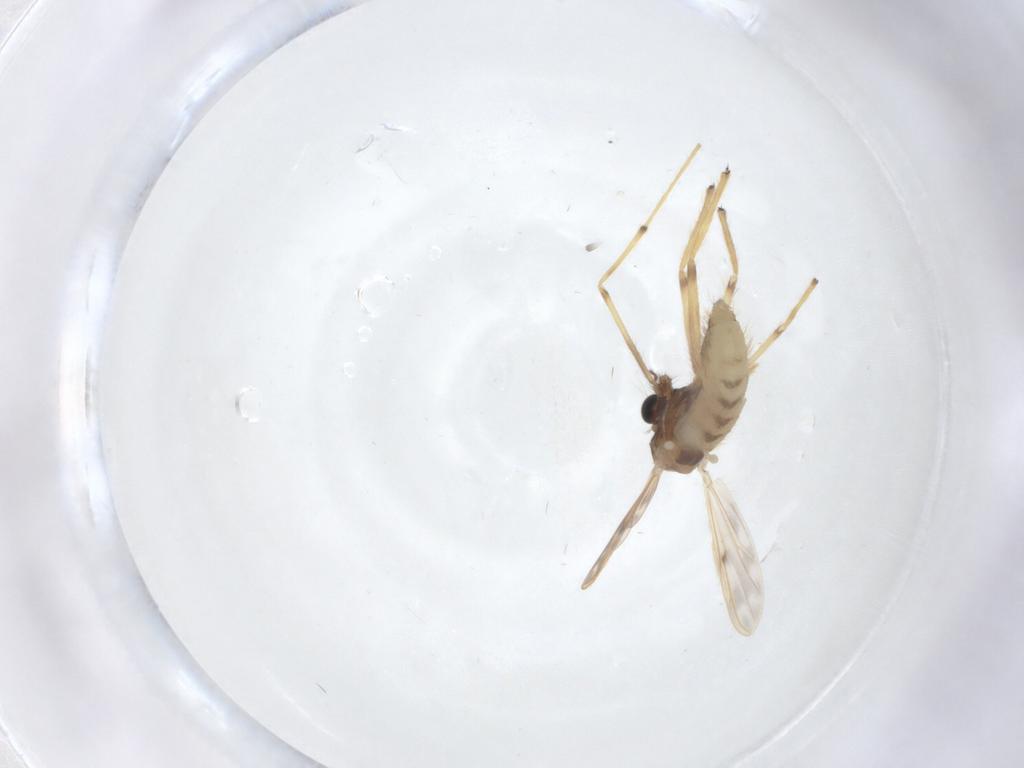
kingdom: Animalia
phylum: Arthropoda
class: Insecta
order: Diptera
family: Chironomidae
